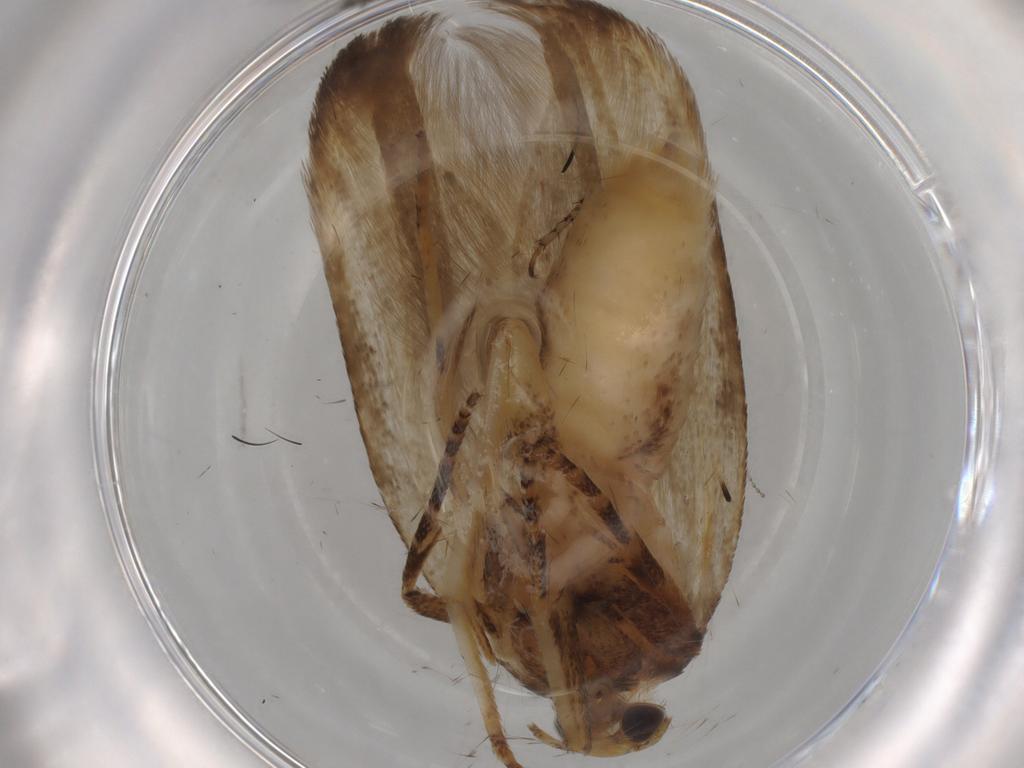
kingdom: Animalia
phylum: Arthropoda
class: Insecta
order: Lepidoptera
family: Gelechiidae
